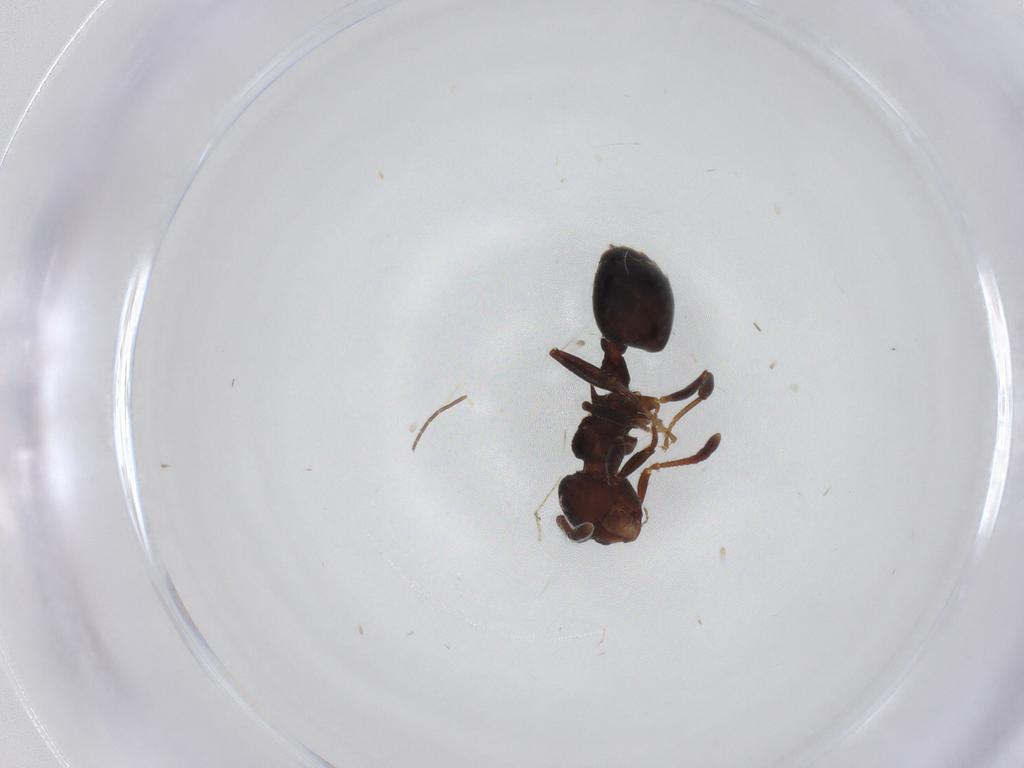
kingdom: Animalia
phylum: Arthropoda
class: Insecta
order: Hymenoptera
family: Formicidae
